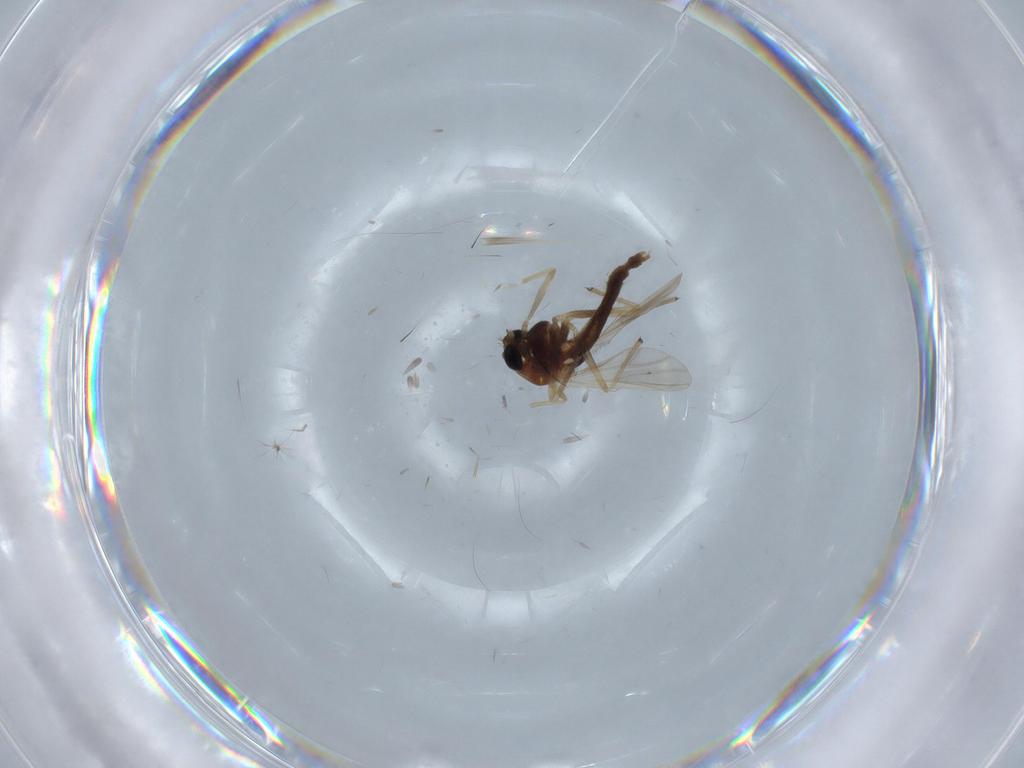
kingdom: Animalia
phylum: Arthropoda
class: Insecta
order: Diptera
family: Chironomidae
